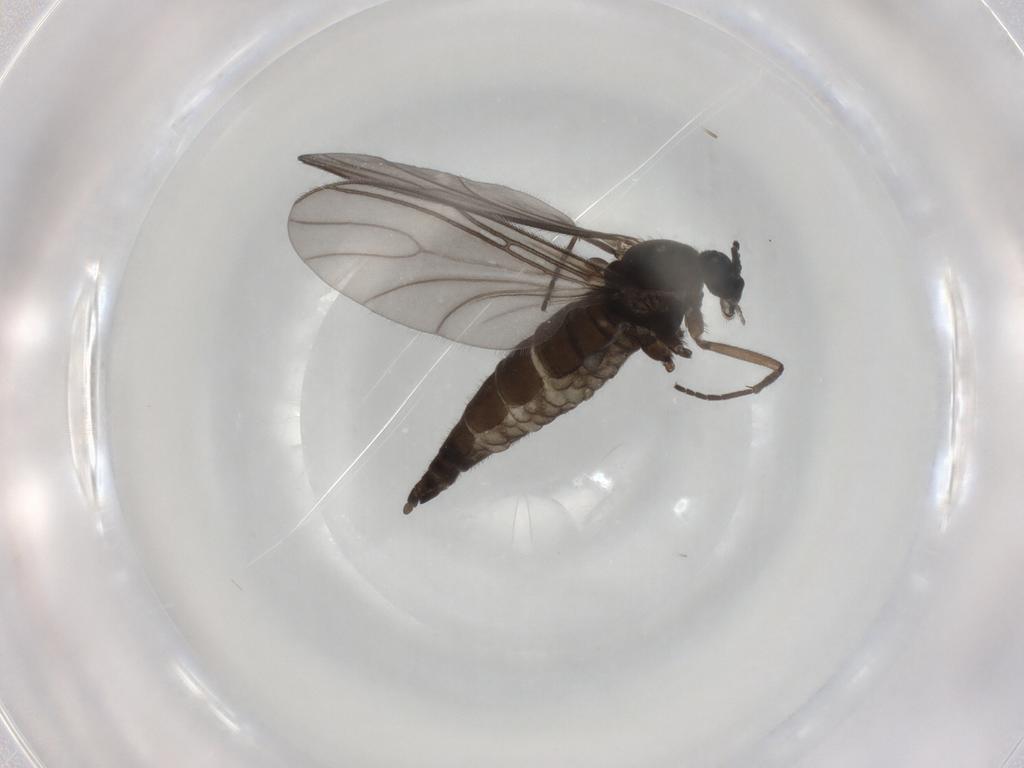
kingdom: Animalia
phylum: Arthropoda
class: Insecta
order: Diptera
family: Sciaridae
